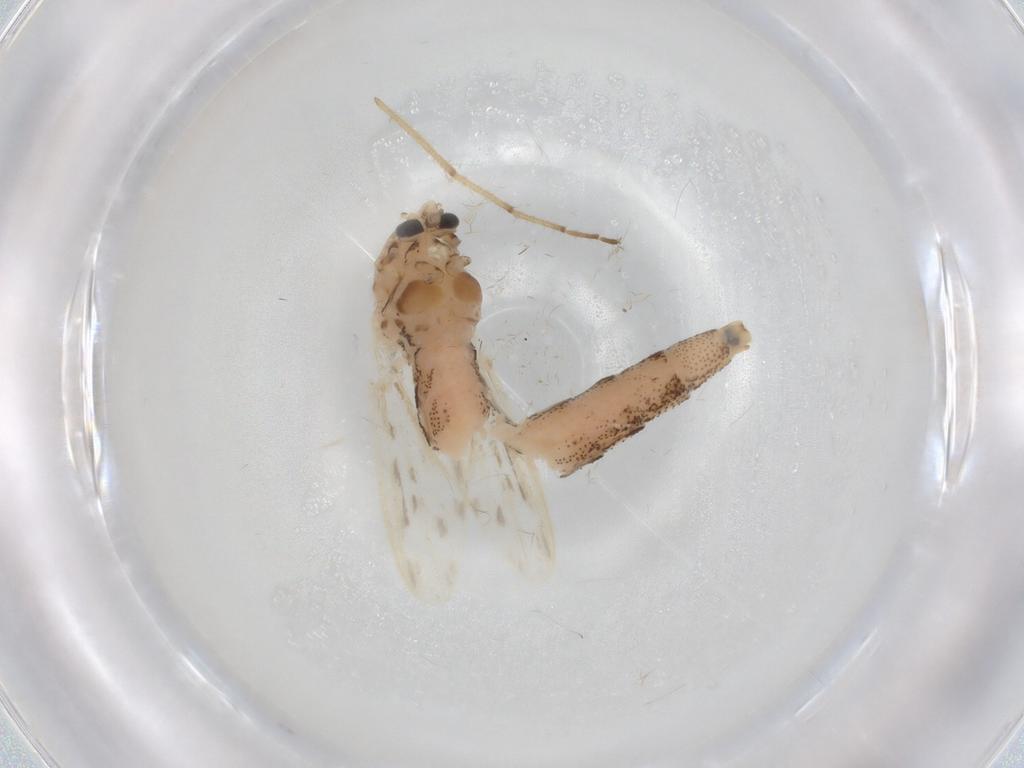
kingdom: Animalia
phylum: Arthropoda
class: Insecta
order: Diptera
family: Chaoboridae
